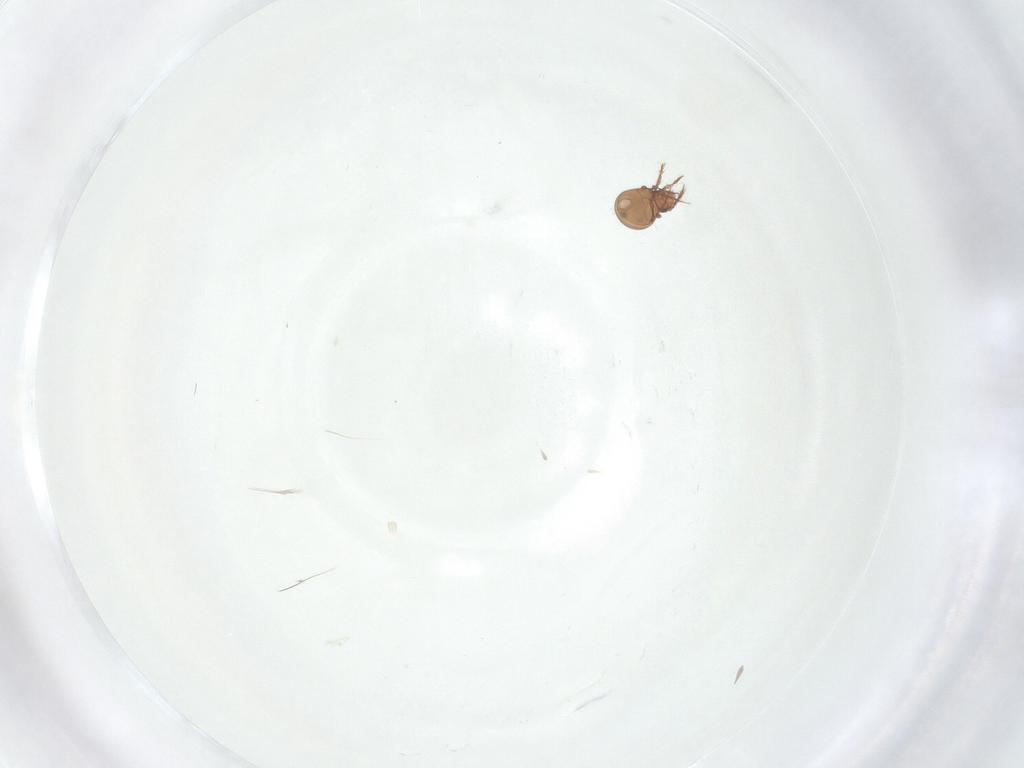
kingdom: Animalia
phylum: Arthropoda
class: Arachnida
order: Sarcoptiformes
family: Oppiidae
